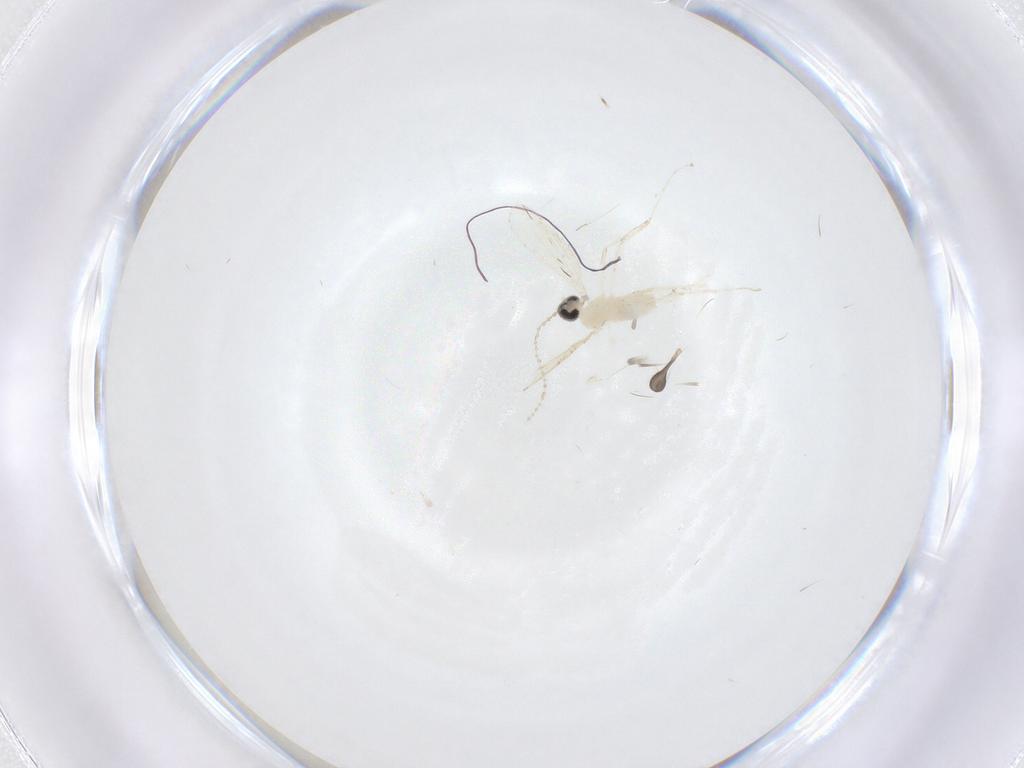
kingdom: Animalia
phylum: Arthropoda
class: Insecta
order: Diptera
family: Sciaridae
